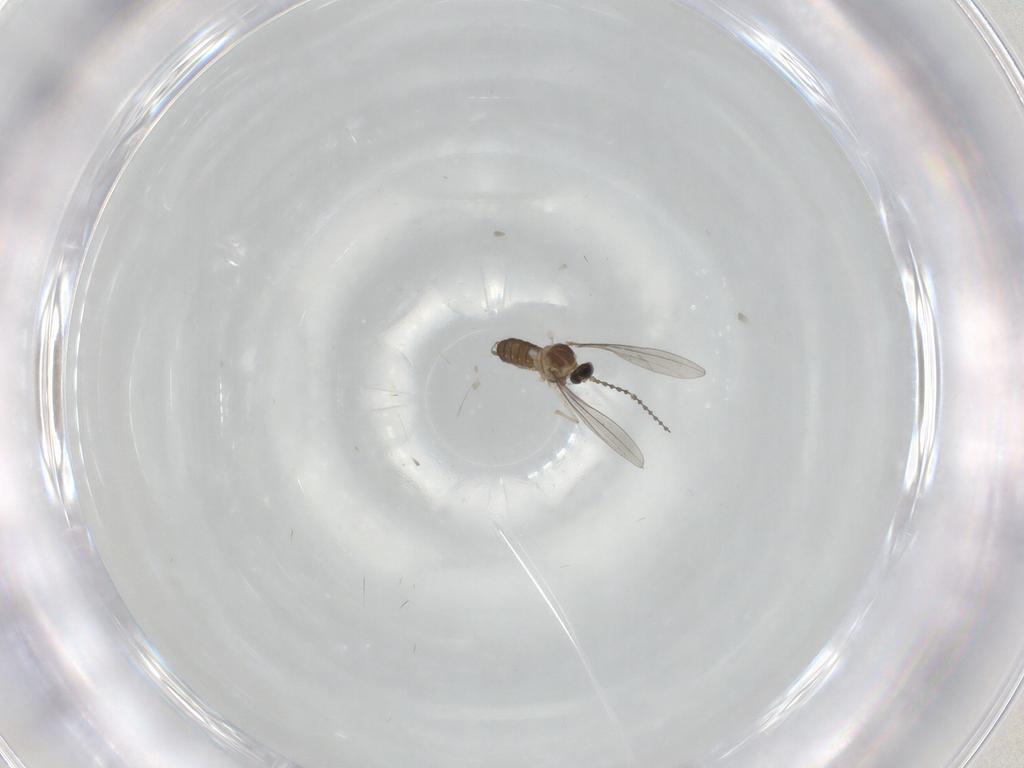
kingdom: Animalia
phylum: Arthropoda
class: Insecta
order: Diptera
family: Cecidomyiidae
